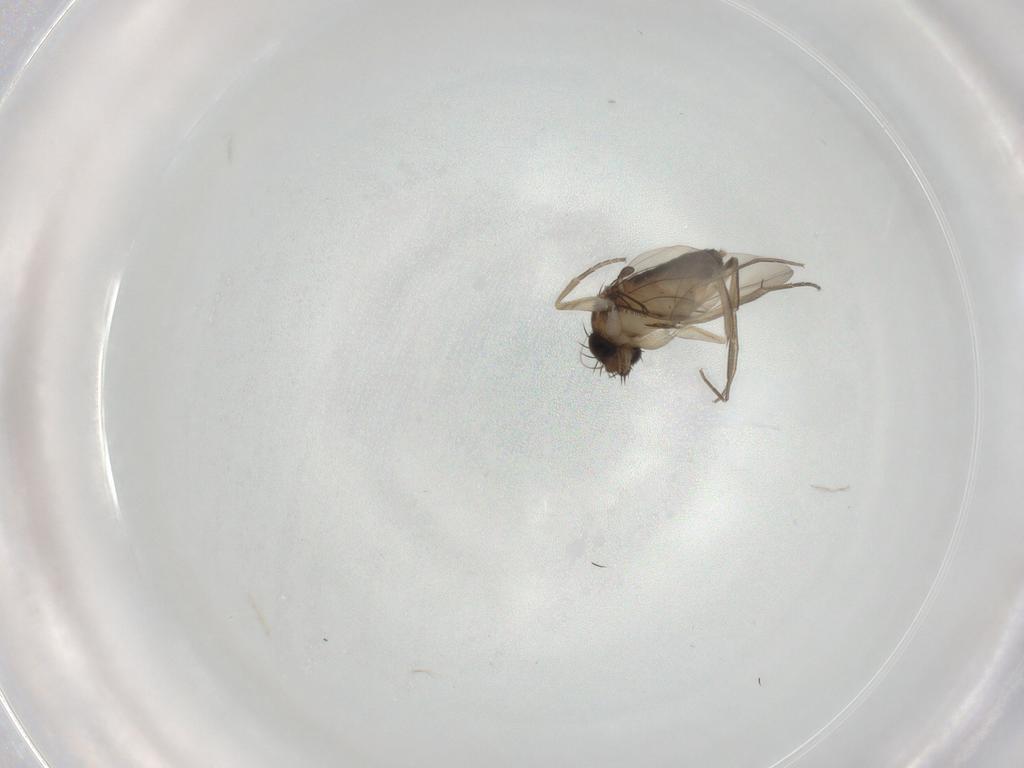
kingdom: Animalia
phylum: Arthropoda
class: Insecta
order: Diptera
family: Phoridae
